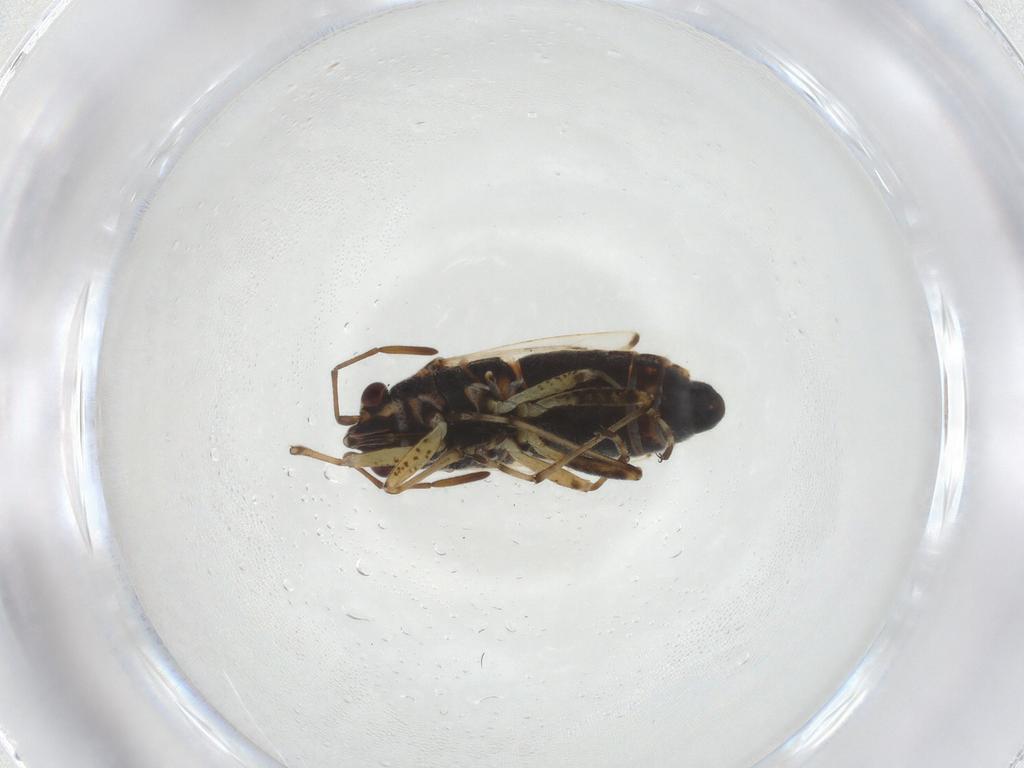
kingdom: Animalia
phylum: Arthropoda
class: Insecta
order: Hemiptera
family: Lygaeidae
